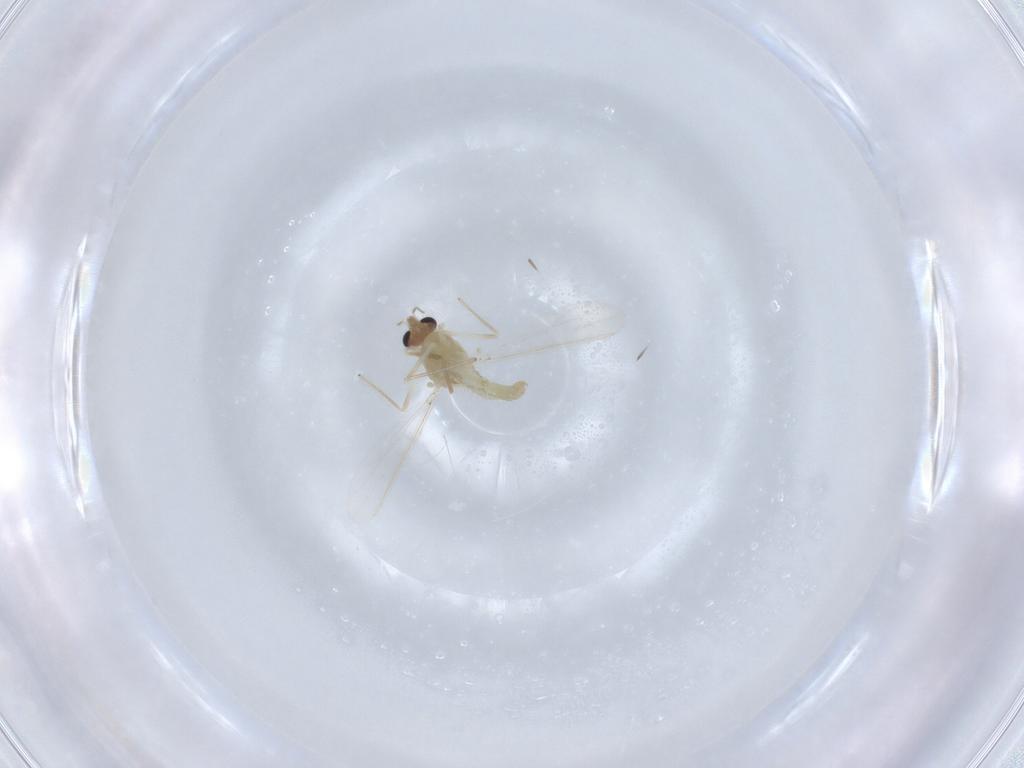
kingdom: Animalia
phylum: Arthropoda
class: Insecta
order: Diptera
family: Chironomidae
